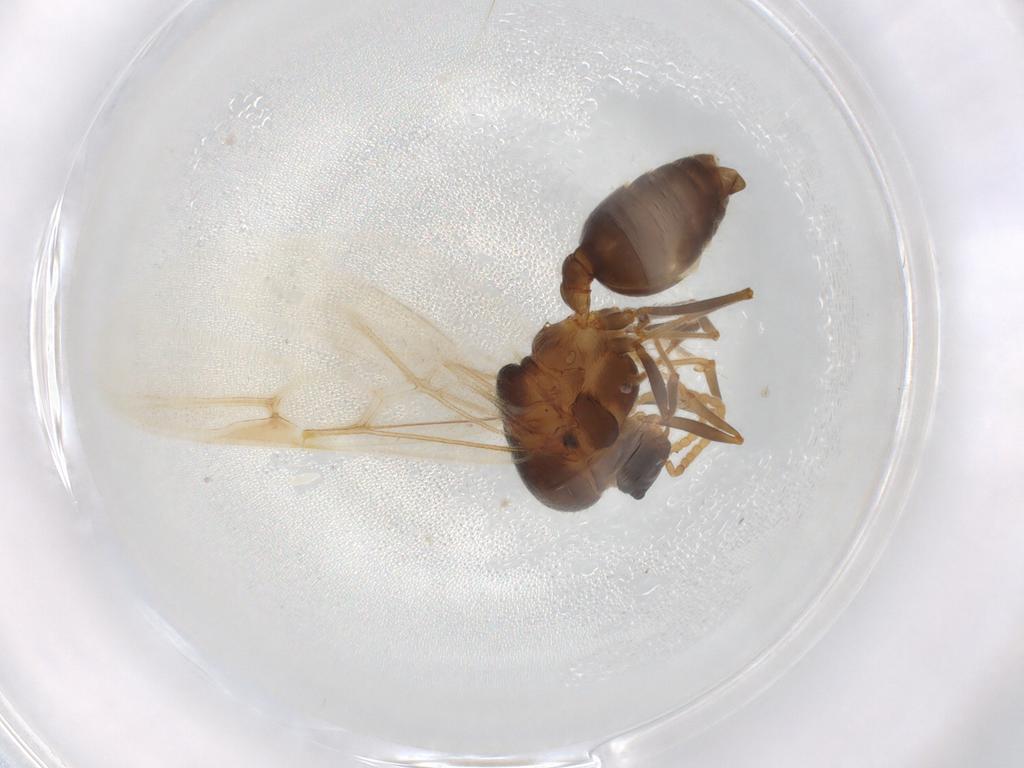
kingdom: Animalia
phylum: Arthropoda
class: Insecta
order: Hymenoptera
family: Formicidae
